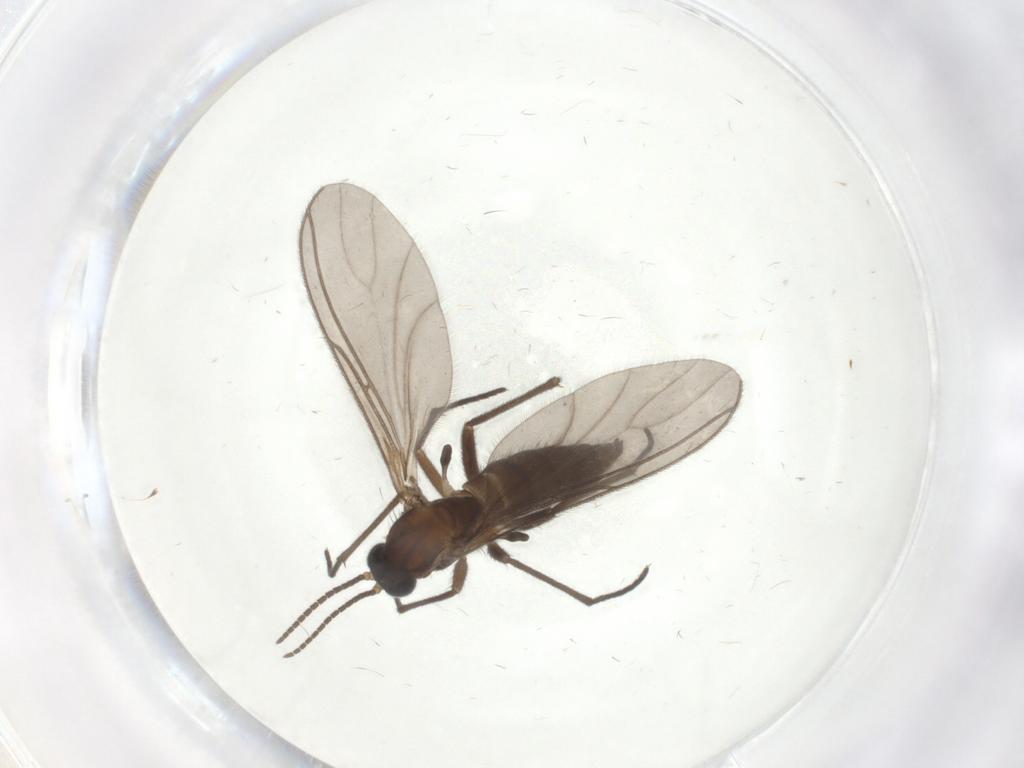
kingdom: Animalia
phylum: Arthropoda
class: Insecta
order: Diptera
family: Sciaridae
